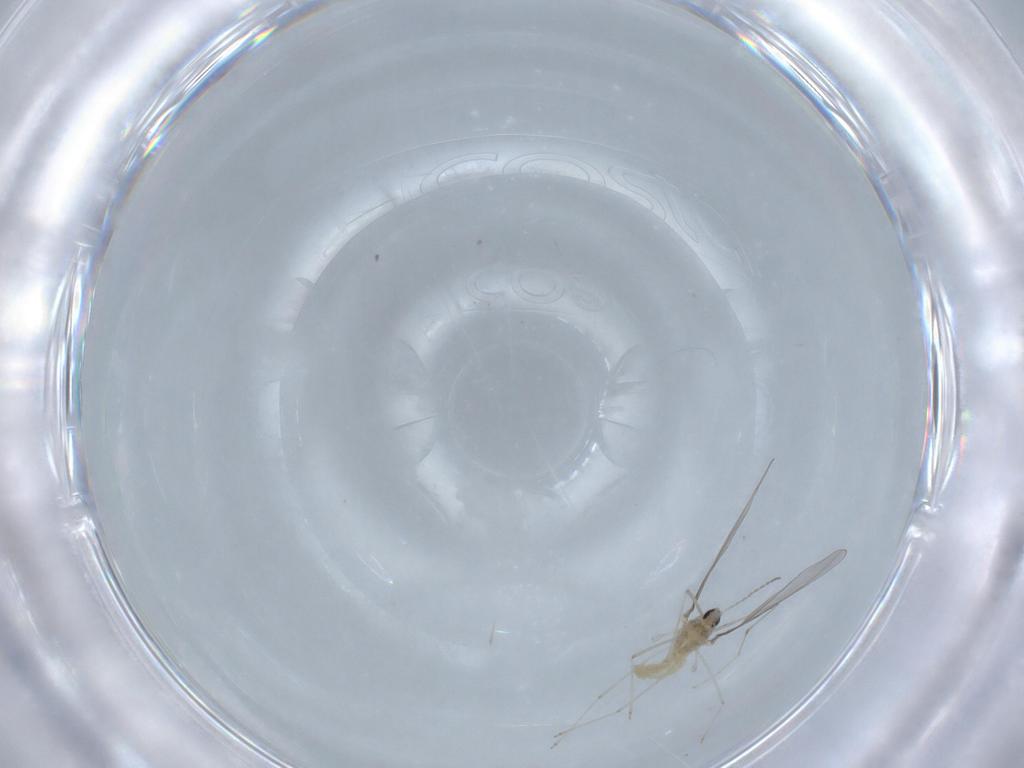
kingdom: Animalia
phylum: Arthropoda
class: Insecta
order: Diptera
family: Cecidomyiidae
